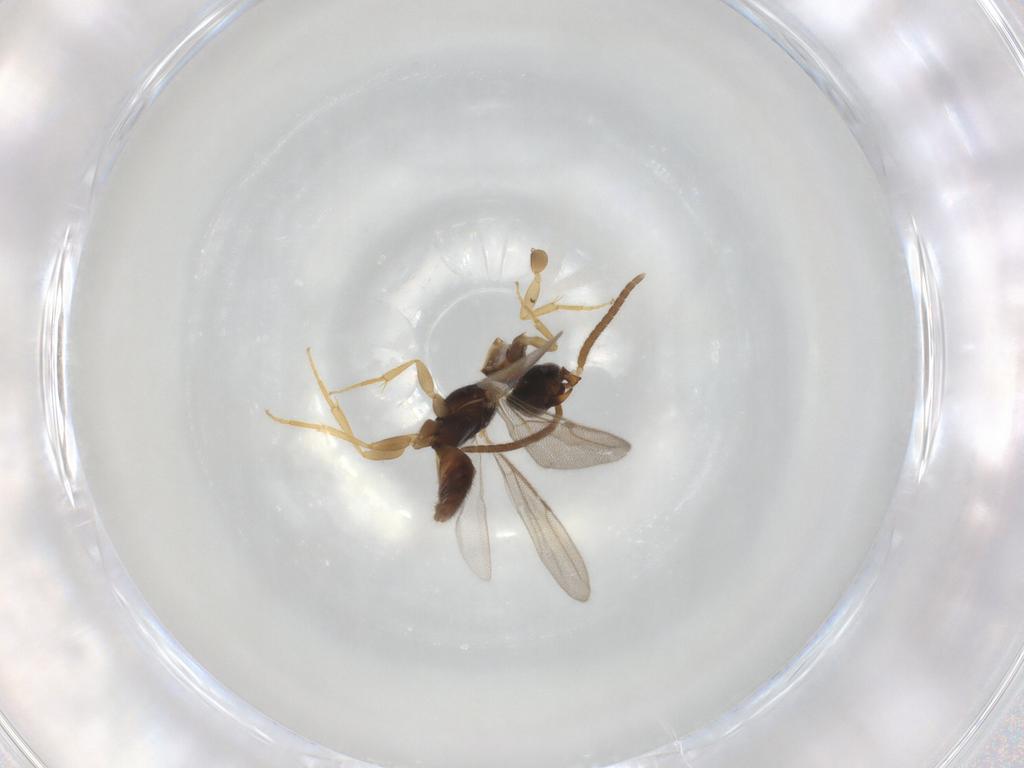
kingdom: Animalia
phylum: Arthropoda
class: Insecta
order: Hymenoptera
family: Bethylidae
